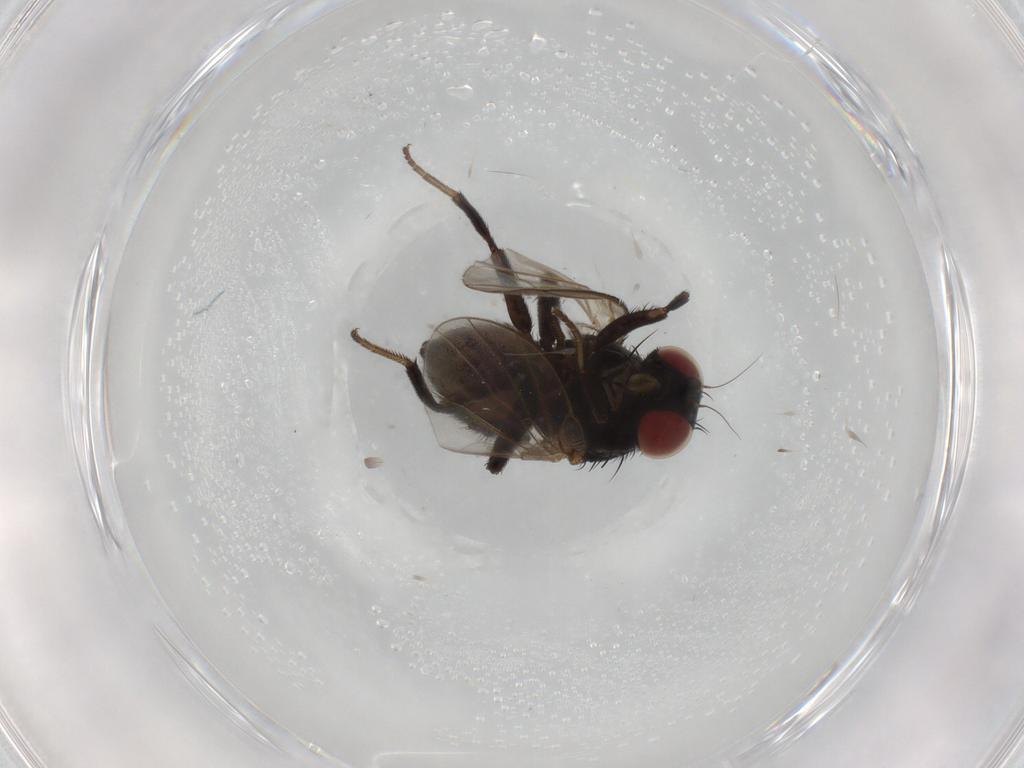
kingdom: Animalia
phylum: Arthropoda
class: Insecta
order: Diptera
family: Agromyzidae
